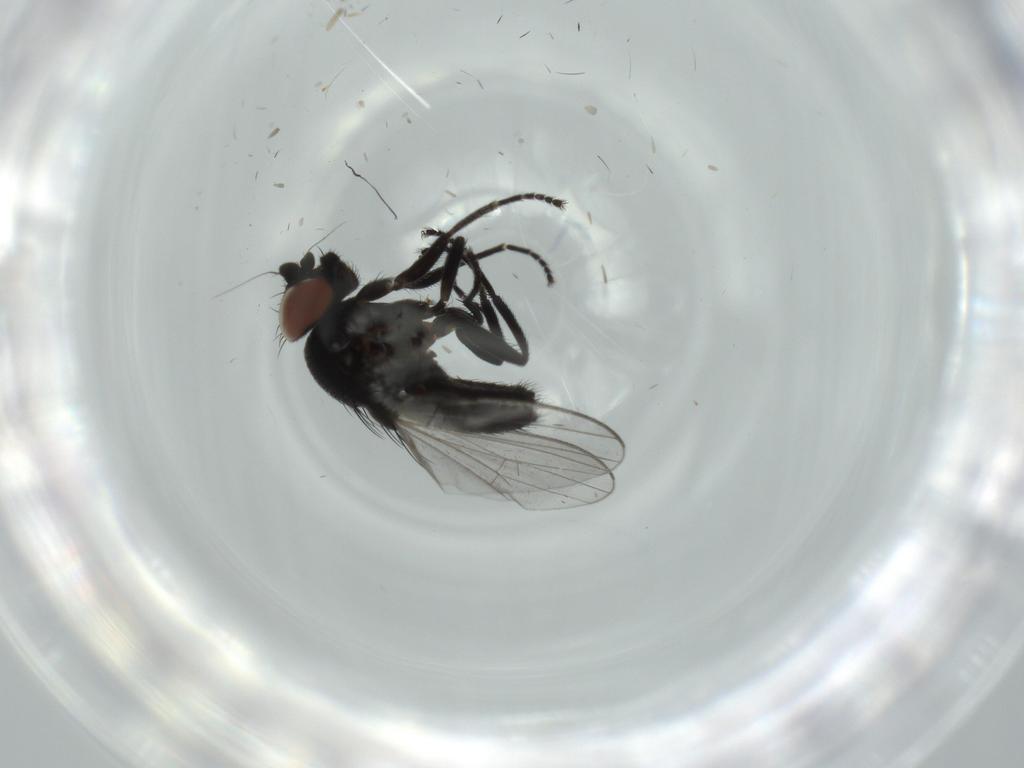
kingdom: Animalia
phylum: Arthropoda
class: Insecta
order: Diptera
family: Milichiidae
